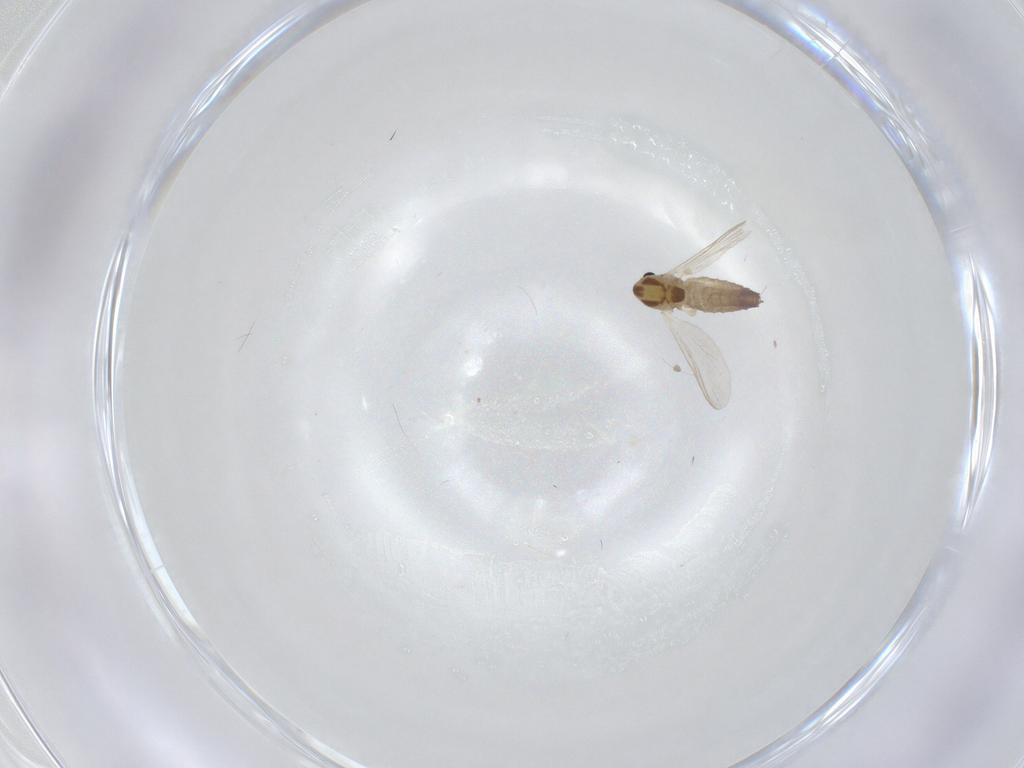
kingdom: Animalia
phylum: Arthropoda
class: Insecta
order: Diptera
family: Chironomidae
